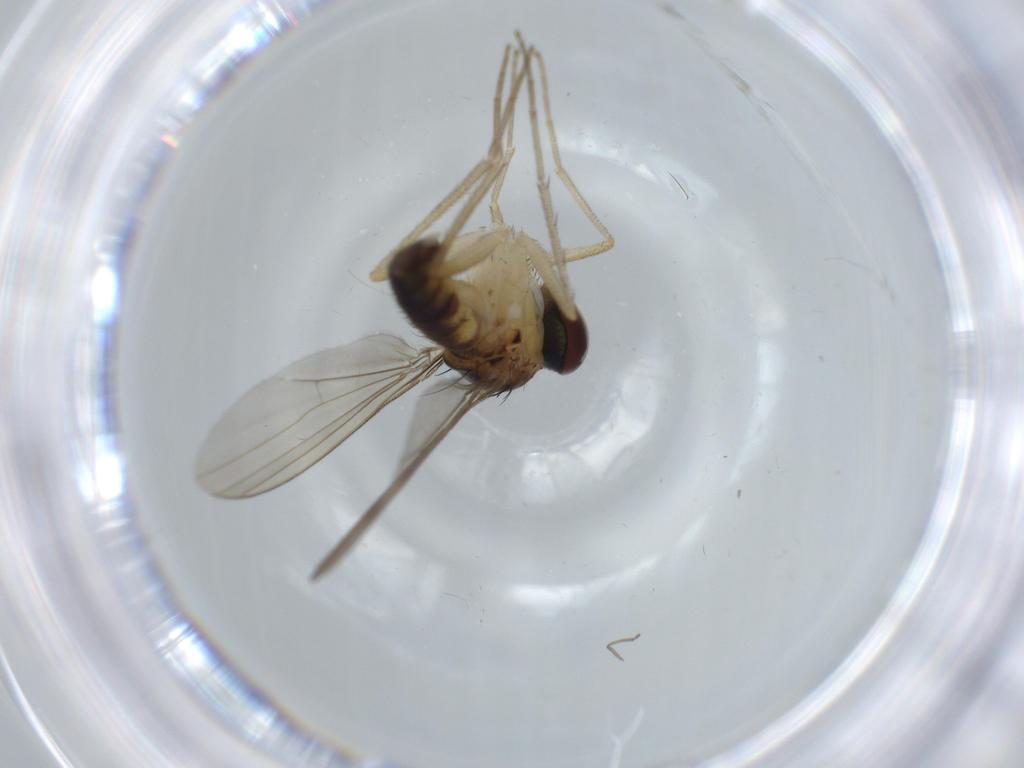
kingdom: Animalia
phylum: Arthropoda
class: Insecta
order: Diptera
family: Dolichopodidae
